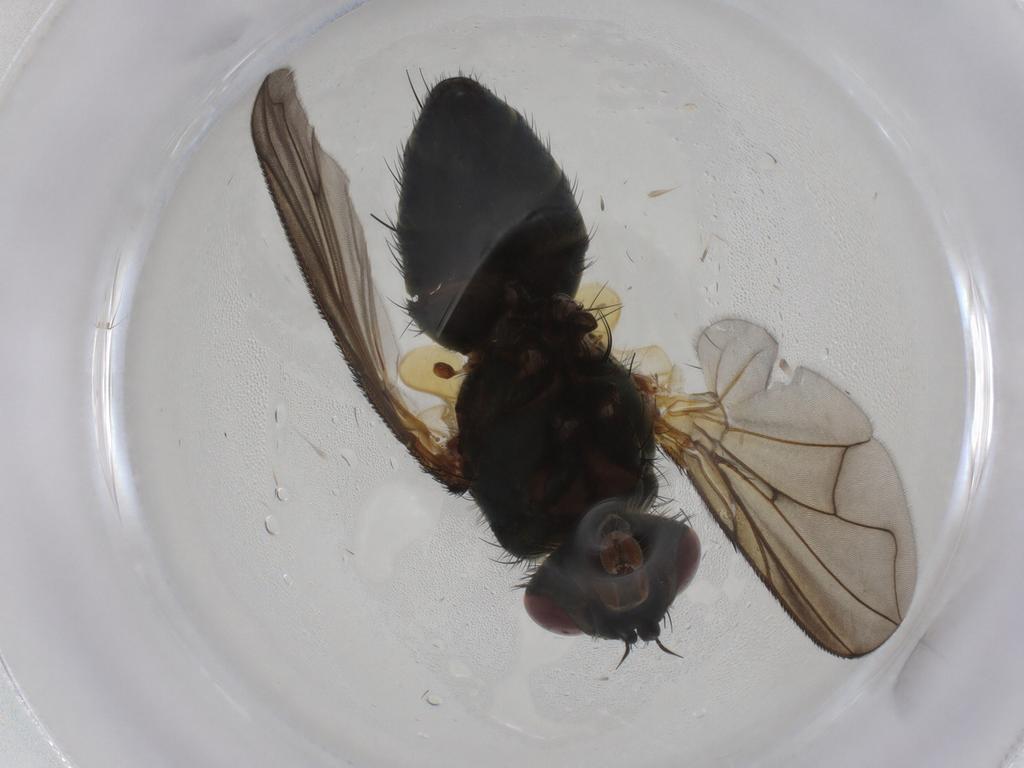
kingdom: Animalia
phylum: Arthropoda
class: Insecta
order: Diptera
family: Tachinidae
